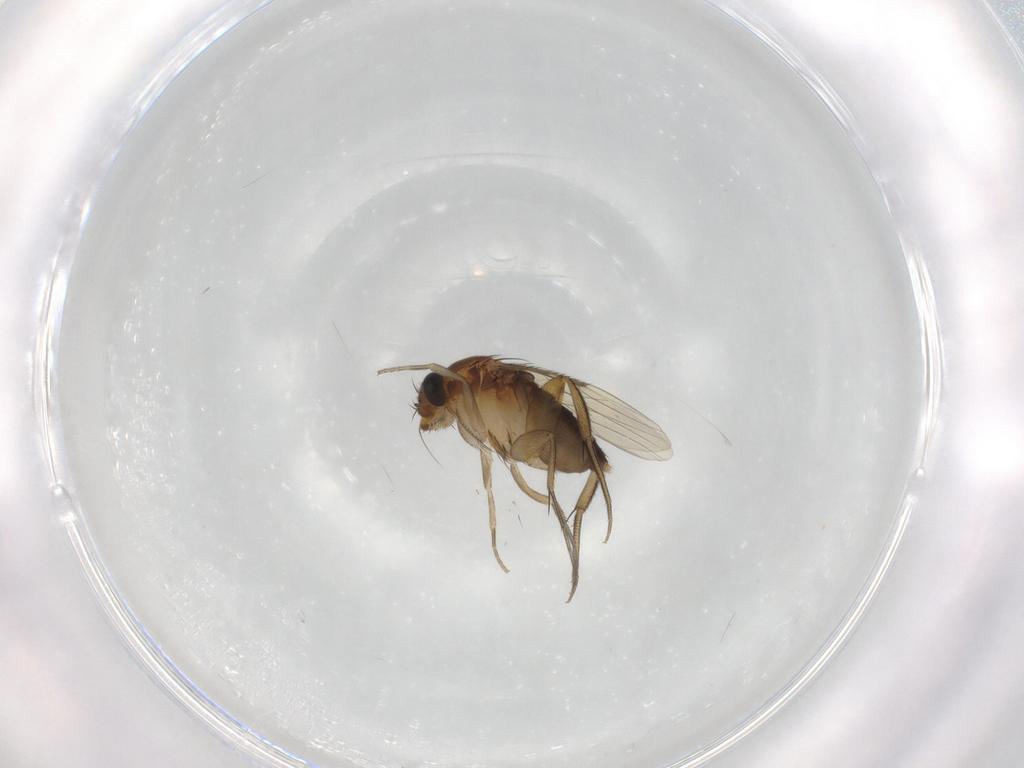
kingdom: Animalia
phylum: Arthropoda
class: Insecta
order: Diptera
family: Phoridae
